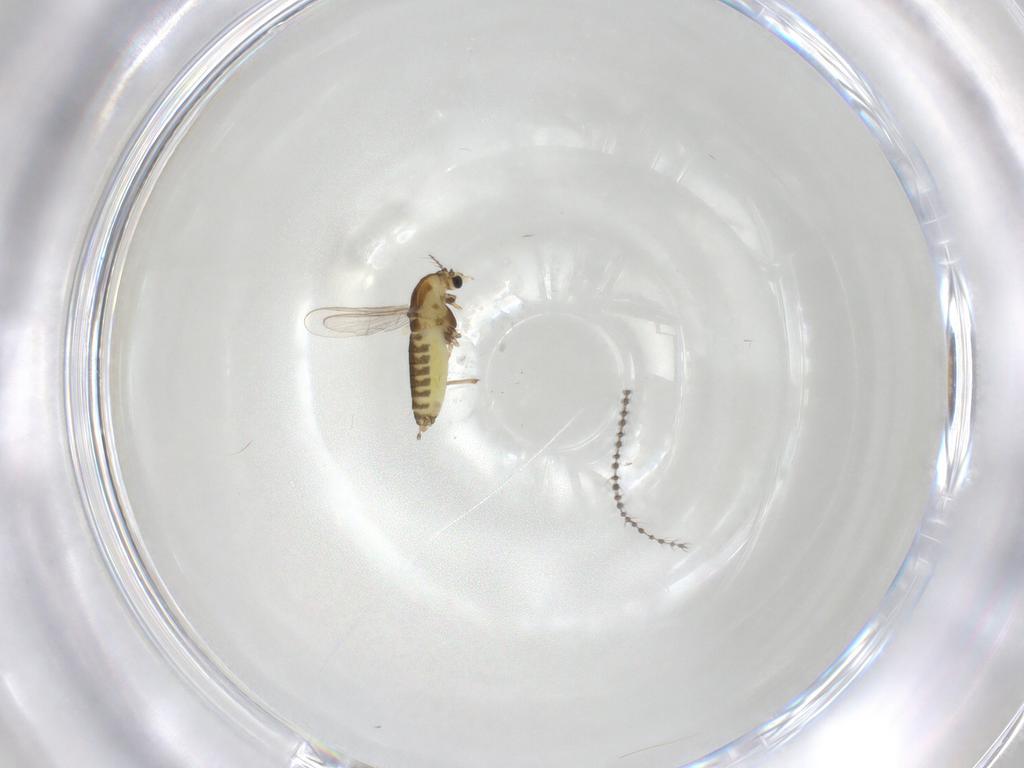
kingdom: Animalia
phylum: Arthropoda
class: Insecta
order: Diptera
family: Chironomidae
